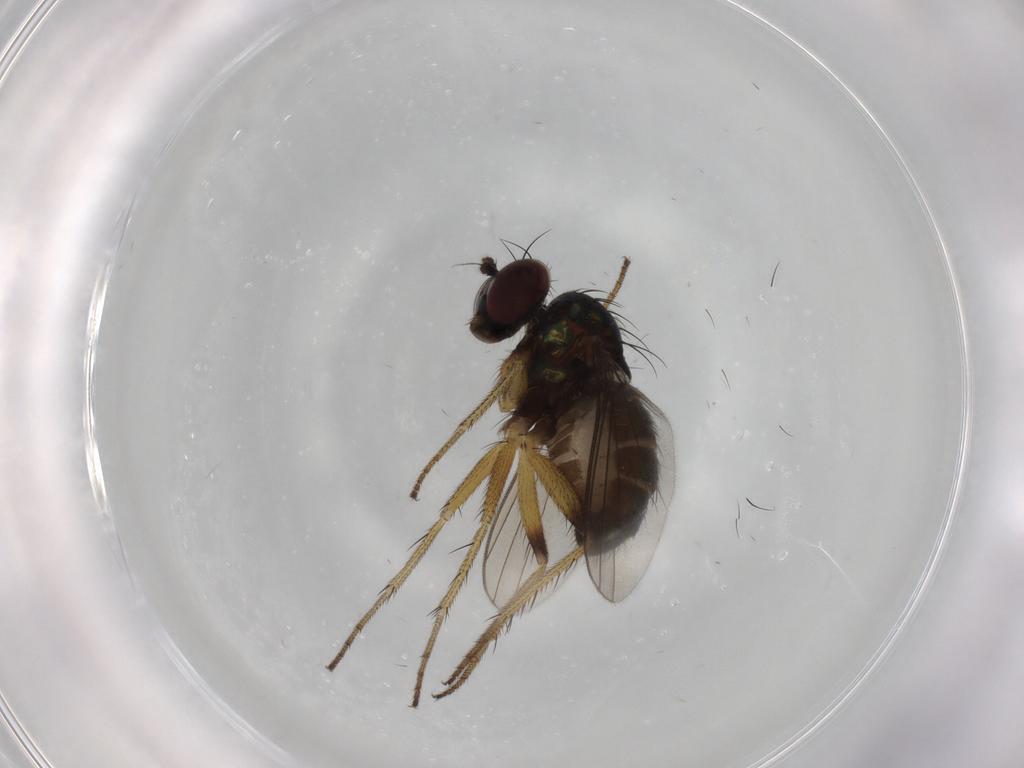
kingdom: Animalia
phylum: Arthropoda
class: Insecta
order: Diptera
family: Dolichopodidae
